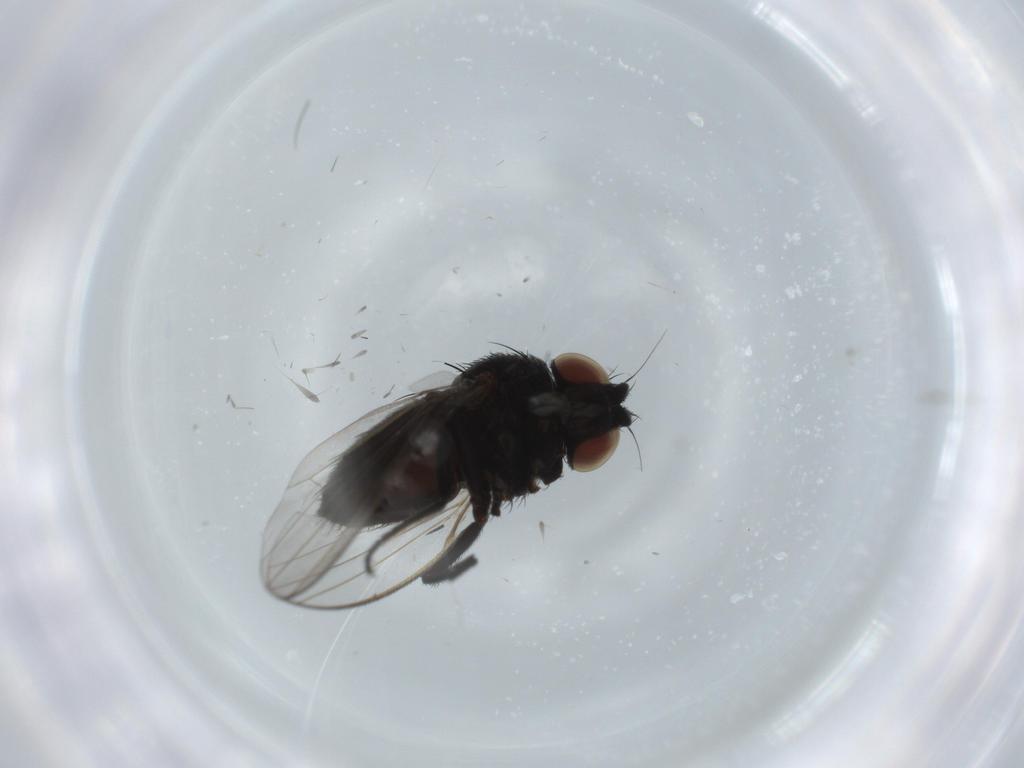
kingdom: Animalia
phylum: Arthropoda
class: Insecta
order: Diptera
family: Milichiidae
